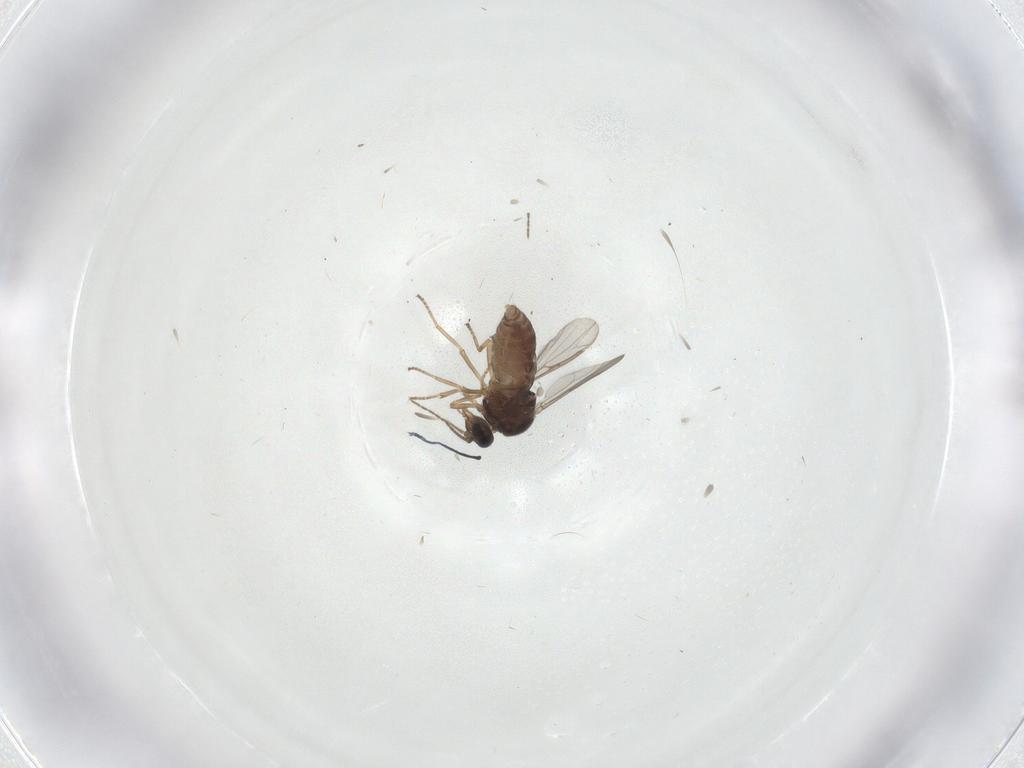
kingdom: Animalia
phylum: Arthropoda
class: Insecta
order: Diptera
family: Ceratopogonidae
